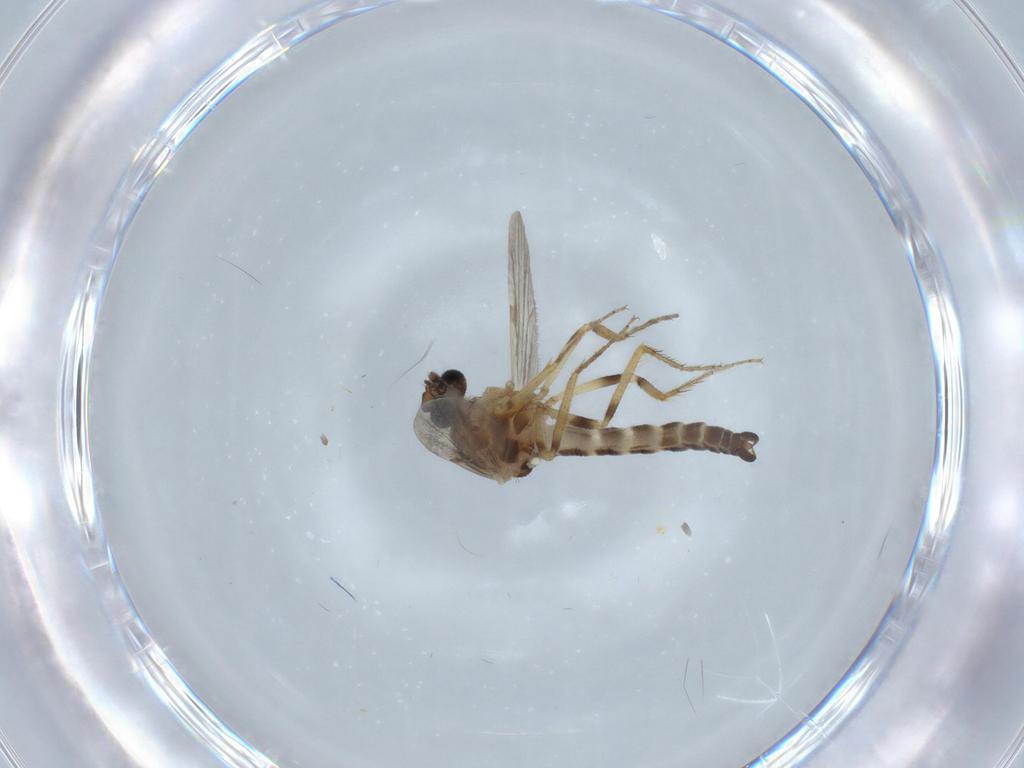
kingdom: Animalia
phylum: Arthropoda
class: Insecta
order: Diptera
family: Ceratopogonidae
